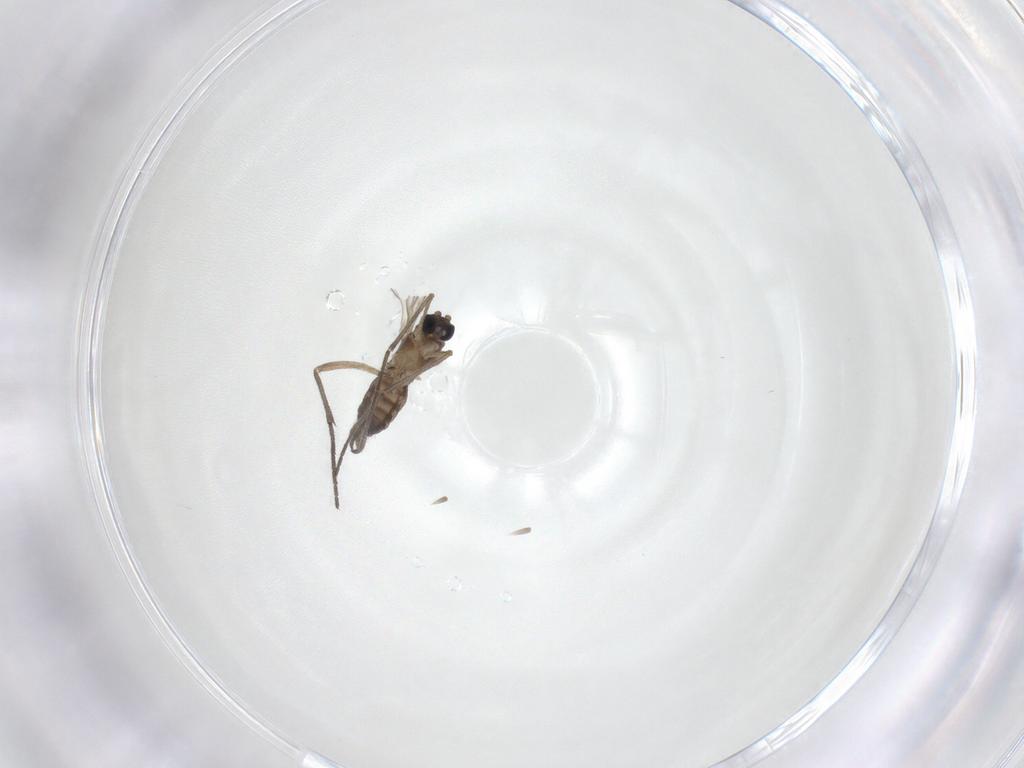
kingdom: Animalia
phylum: Arthropoda
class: Insecta
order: Diptera
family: Sciaridae
